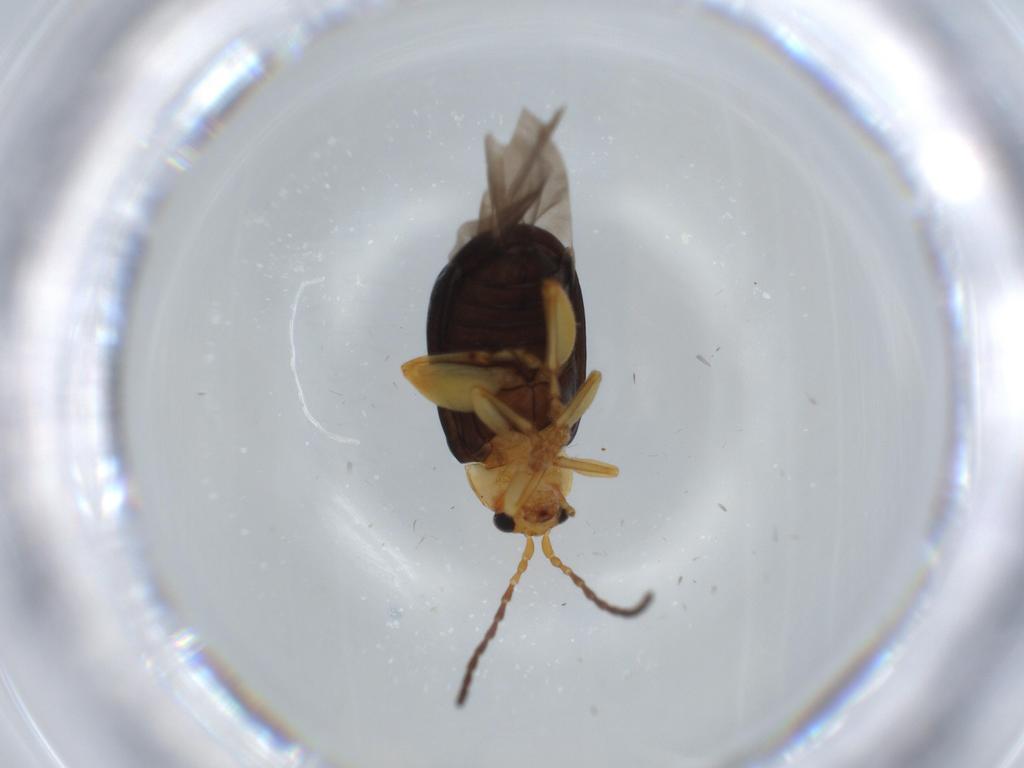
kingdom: Animalia
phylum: Arthropoda
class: Insecta
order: Coleoptera
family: Chrysomelidae
